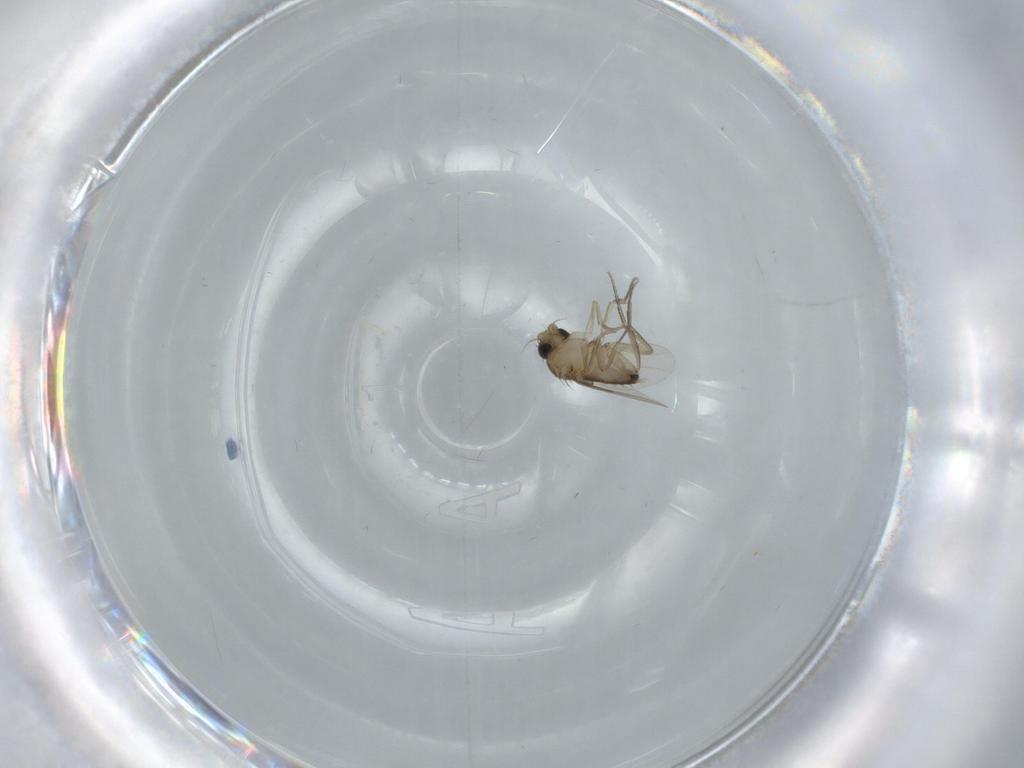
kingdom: Animalia
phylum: Arthropoda
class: Insecta
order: Diptera
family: Phoridae
